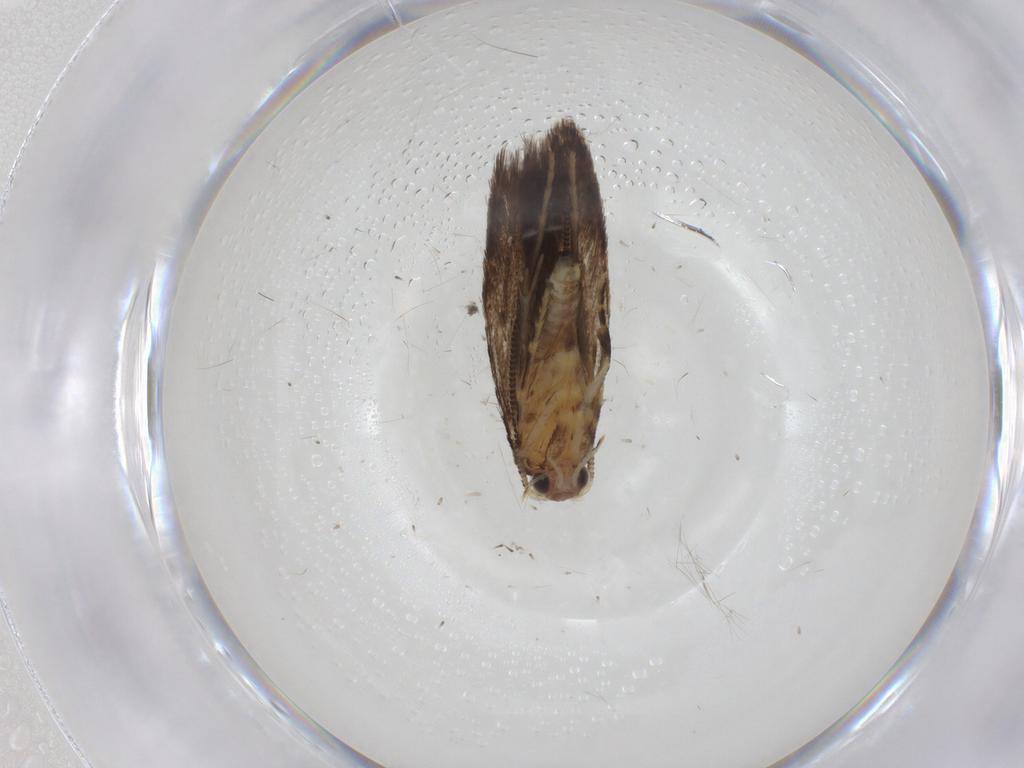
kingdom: Animalia
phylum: Arthropoda
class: Insecta
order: Lepidoptera
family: Tineidae
